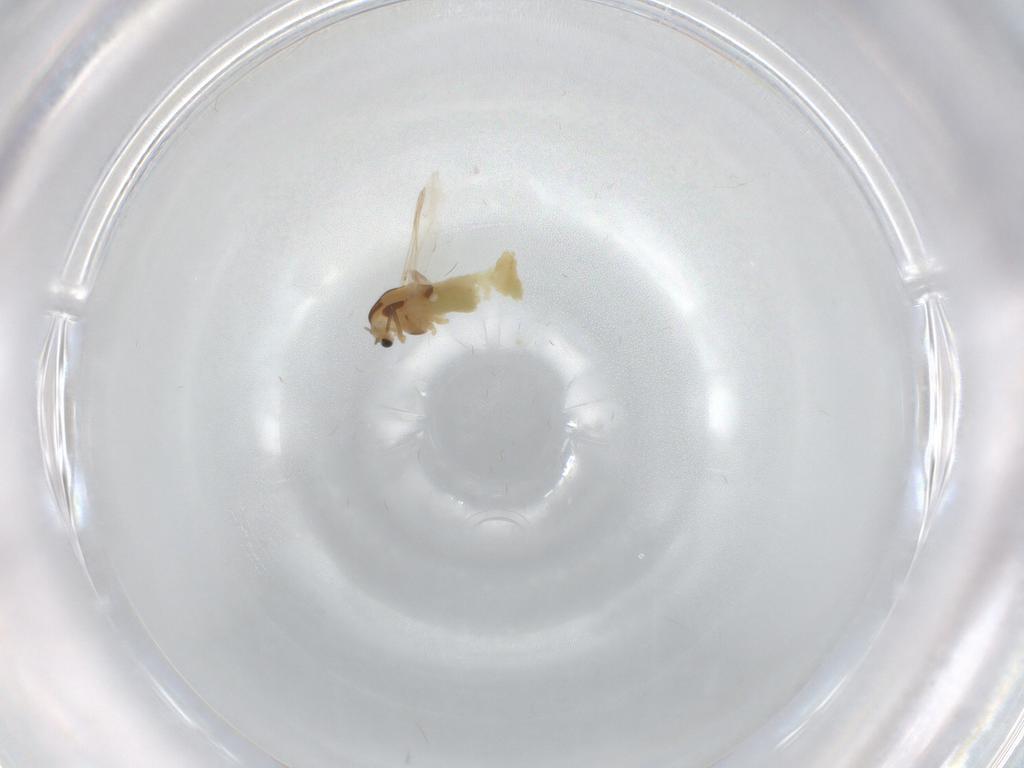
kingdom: Animalia
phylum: Arthropoda
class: Insecta
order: Diptera
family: Chironomidae
